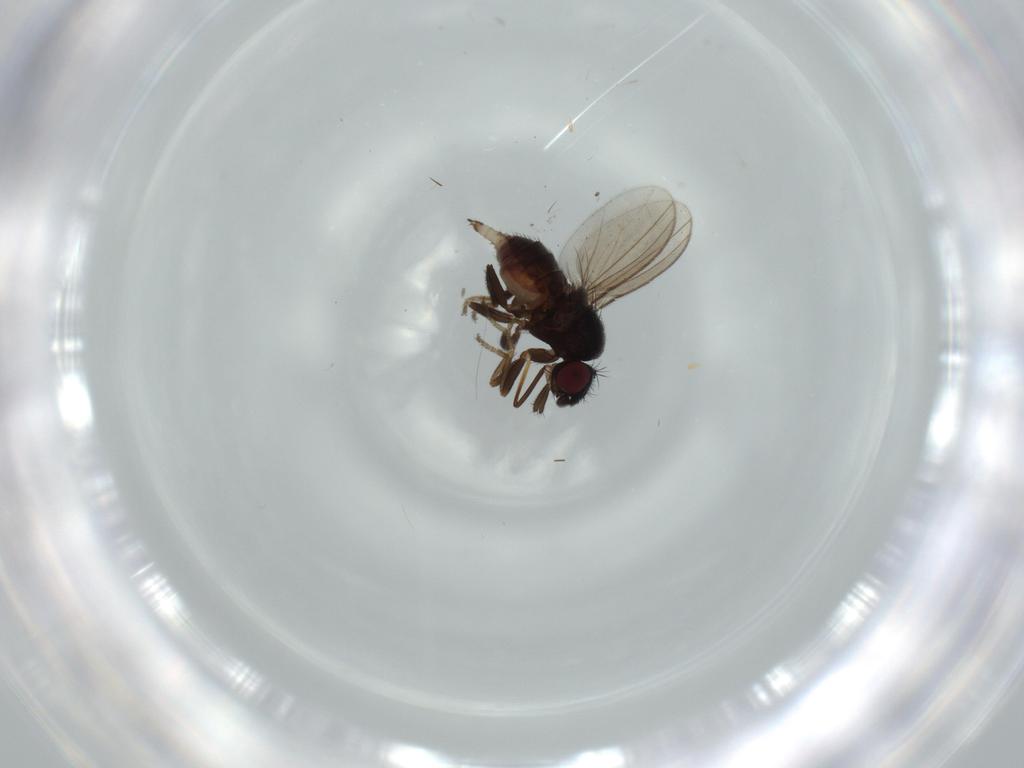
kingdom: Animalia
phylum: Arthropoda
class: Insecta
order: Diptera
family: Milichiidae
